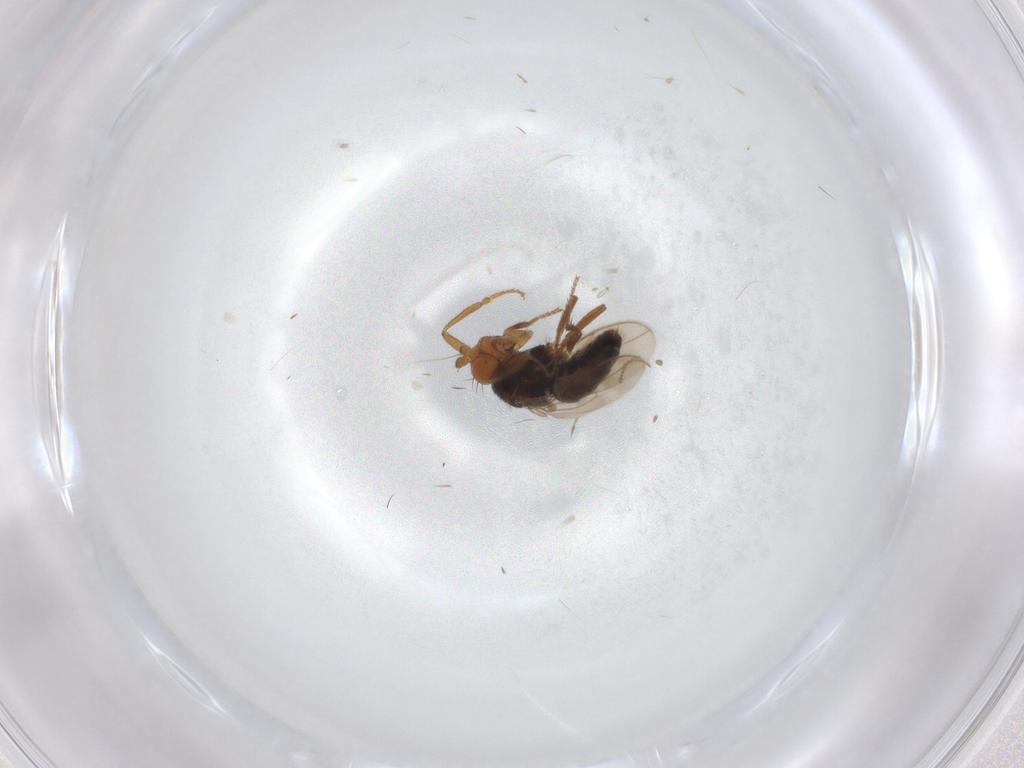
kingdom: Animalia
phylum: Arthropoda
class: Insecta
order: Diptera
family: Sphaeroceridae
